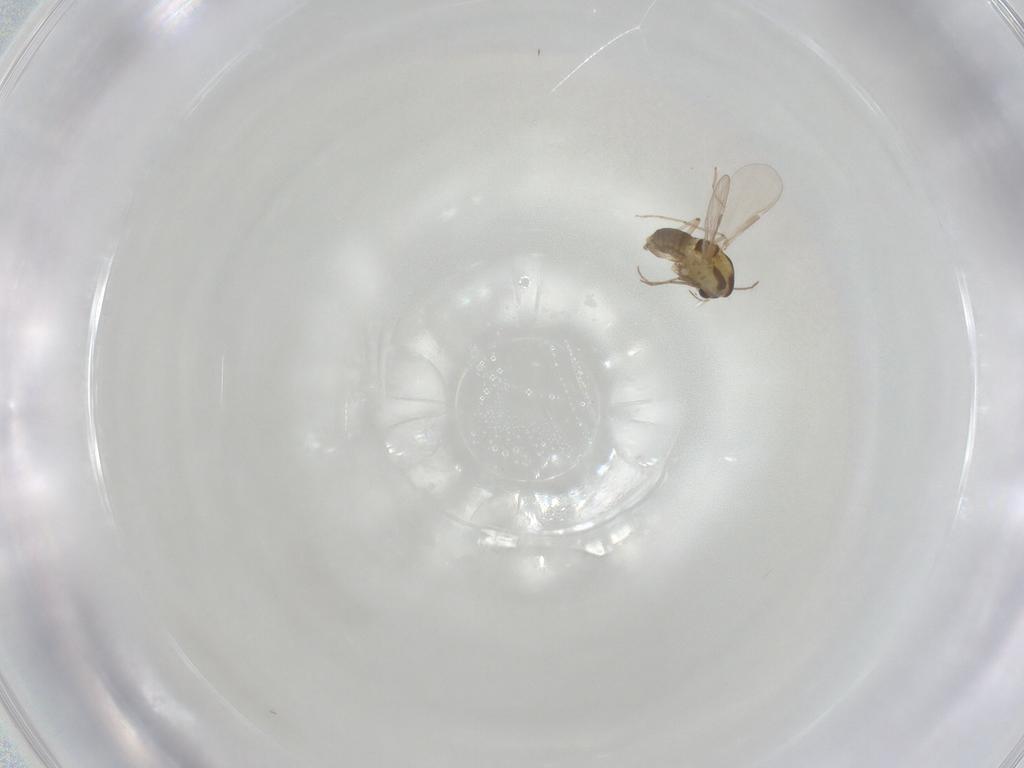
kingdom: Animalia
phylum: Arthropoda
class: Insecta
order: Diptera
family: Chironomidae
